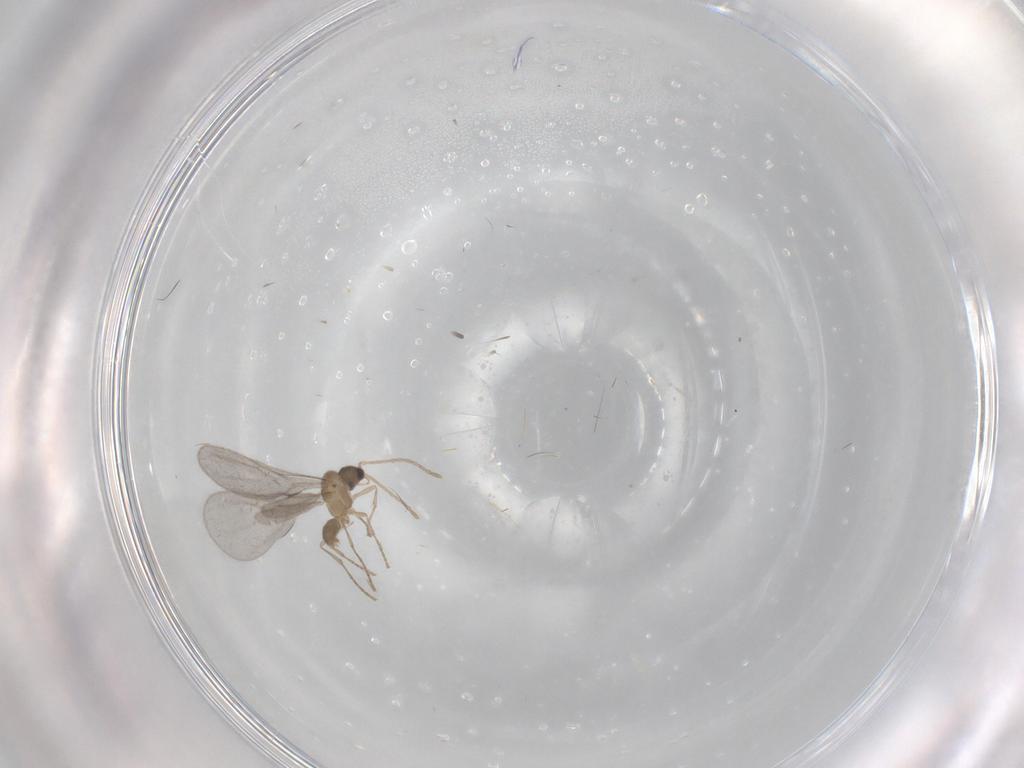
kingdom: Animalia
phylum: Arthropoda
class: Insecta
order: Hymenoptera
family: Formicidae
